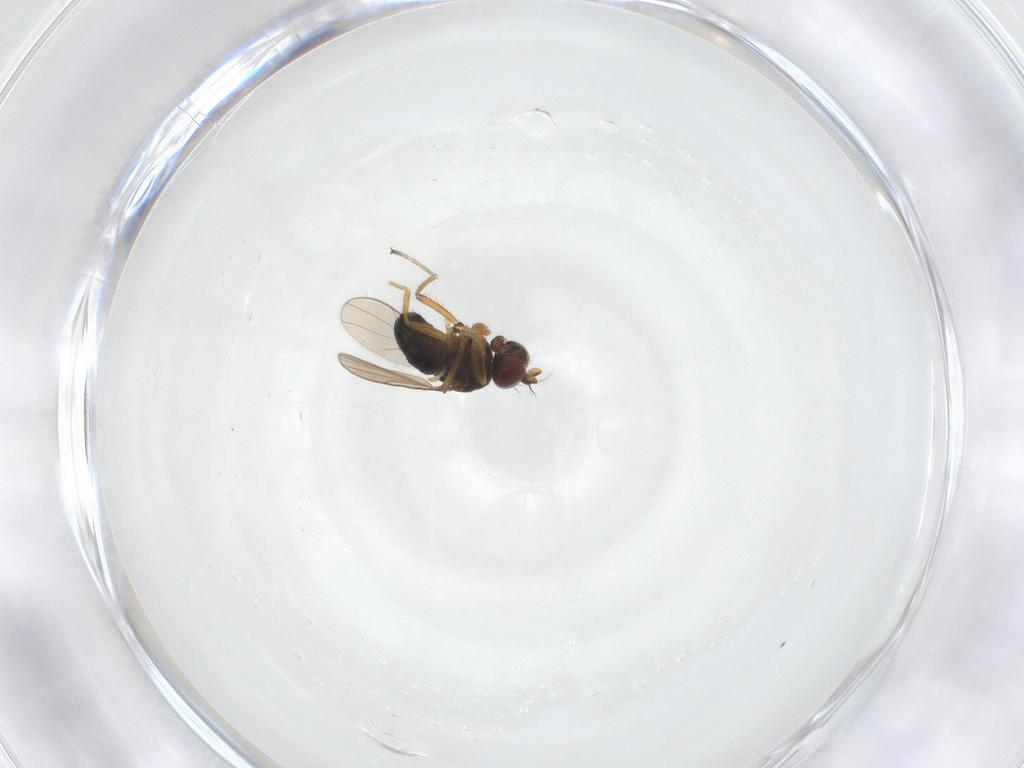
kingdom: Animalia
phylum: Arthropoda
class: Insecta
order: Diptera
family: Ephydridae
